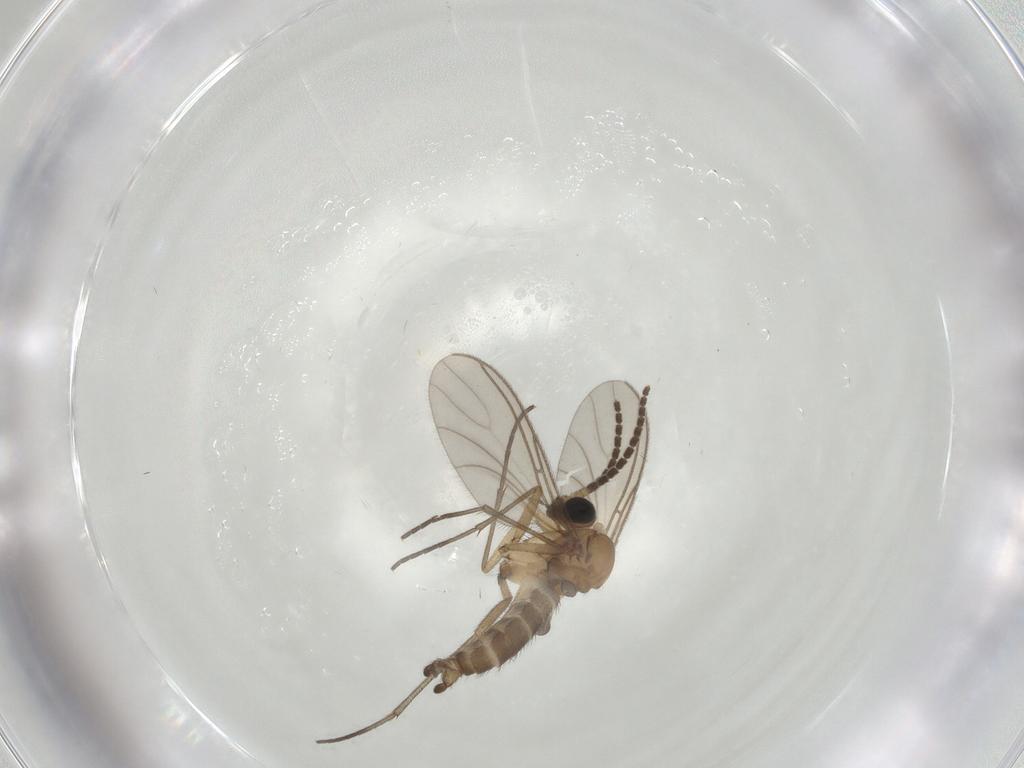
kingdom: Animalia
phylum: Arthropoda
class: Insecta
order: Diptera
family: Sciaridae
